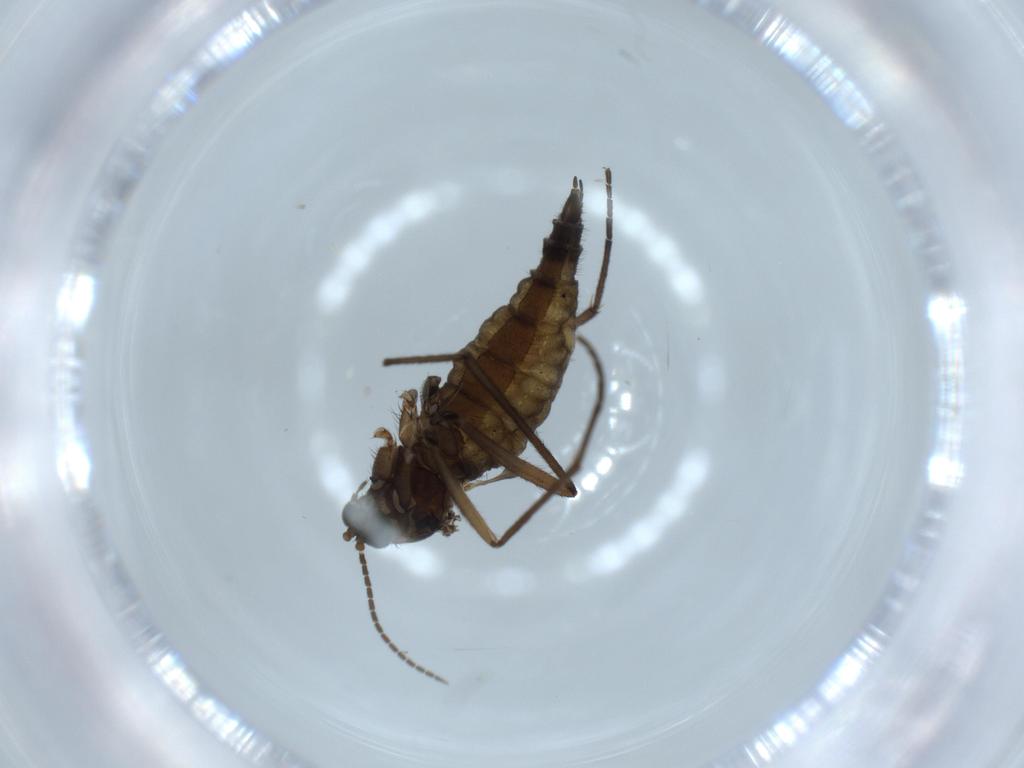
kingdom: Animalia
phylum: Arthropoda
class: Insecta
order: Diptera
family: Sciaridae
